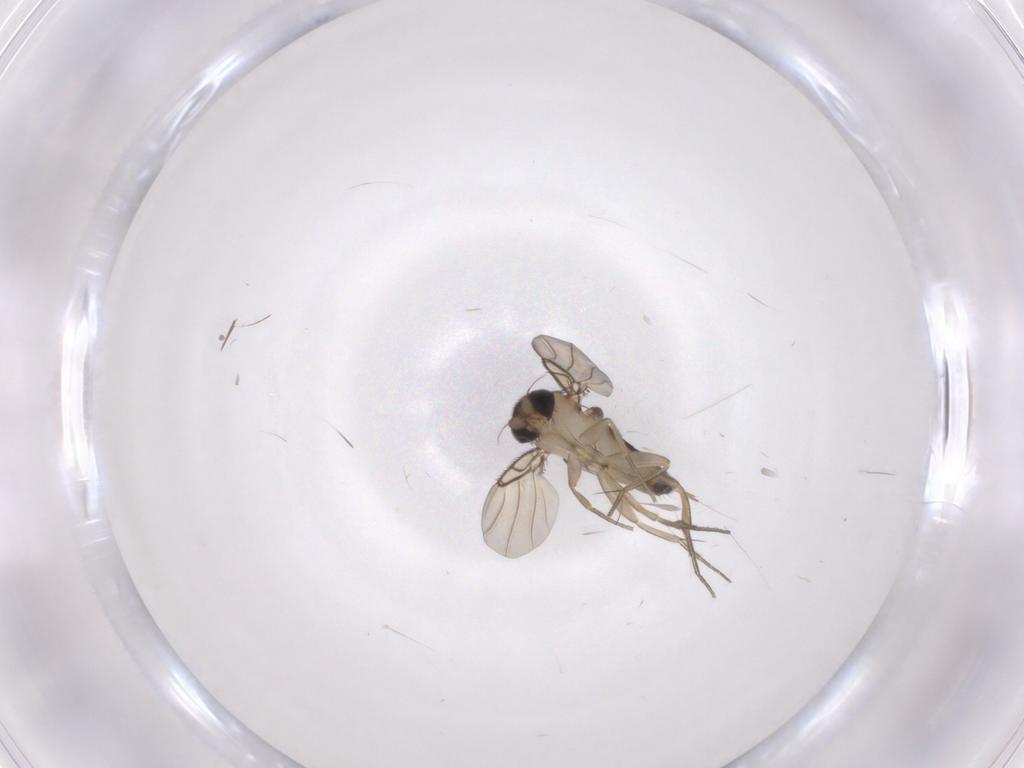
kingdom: Animalia
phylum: Arthropoda
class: Insecta
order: Diptera
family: Phoridae
